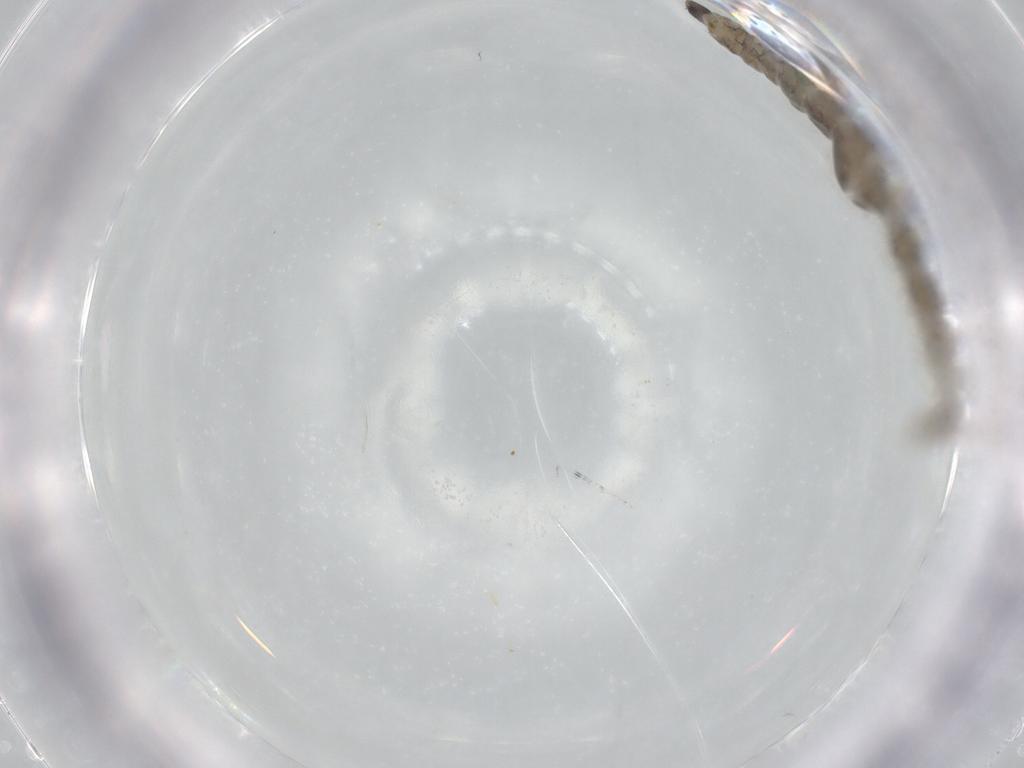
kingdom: Animalia
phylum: Arthropoda
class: Insecta
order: Diptera
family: Chironomidae
